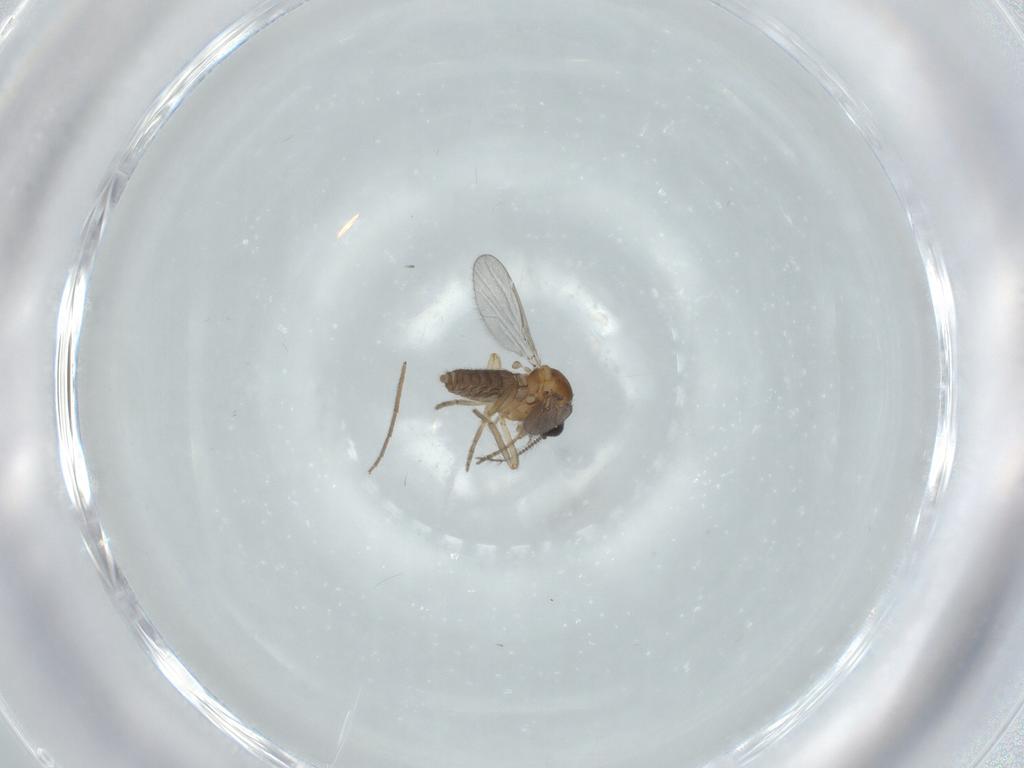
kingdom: Animalia
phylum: Arthropoda
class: Insecta
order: Diptera
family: Ceratopogonidae
